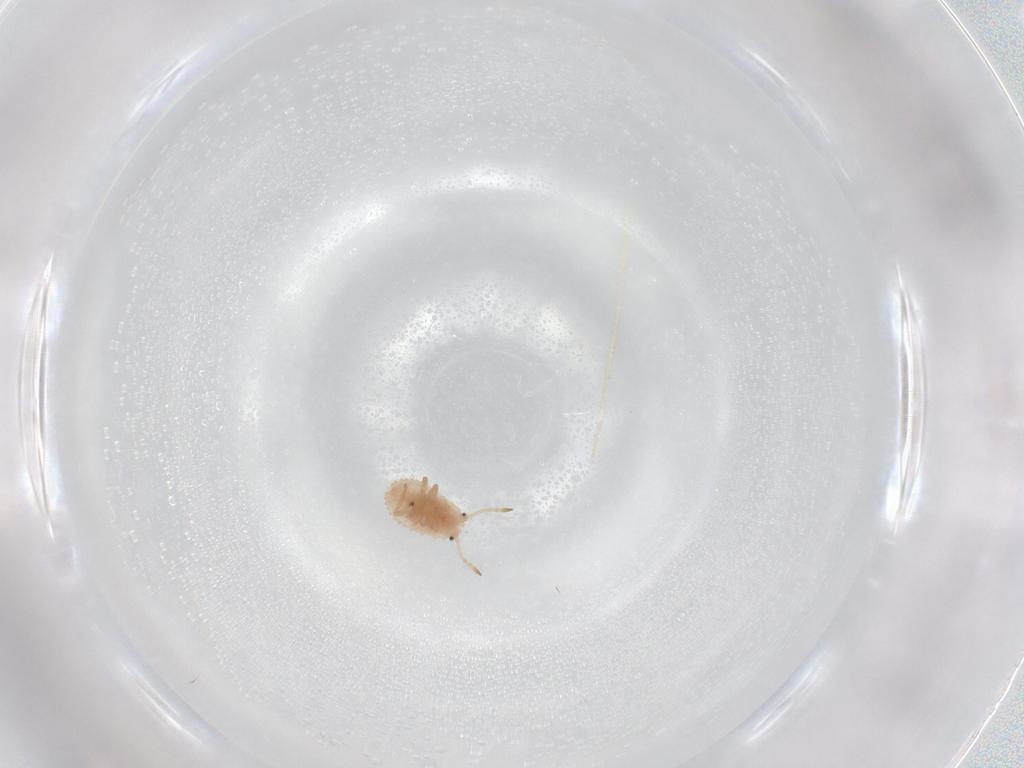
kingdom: Animalia
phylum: Arthropoda
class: Insecta
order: Hemiptera
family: Coccoidea_incertae_sedis
